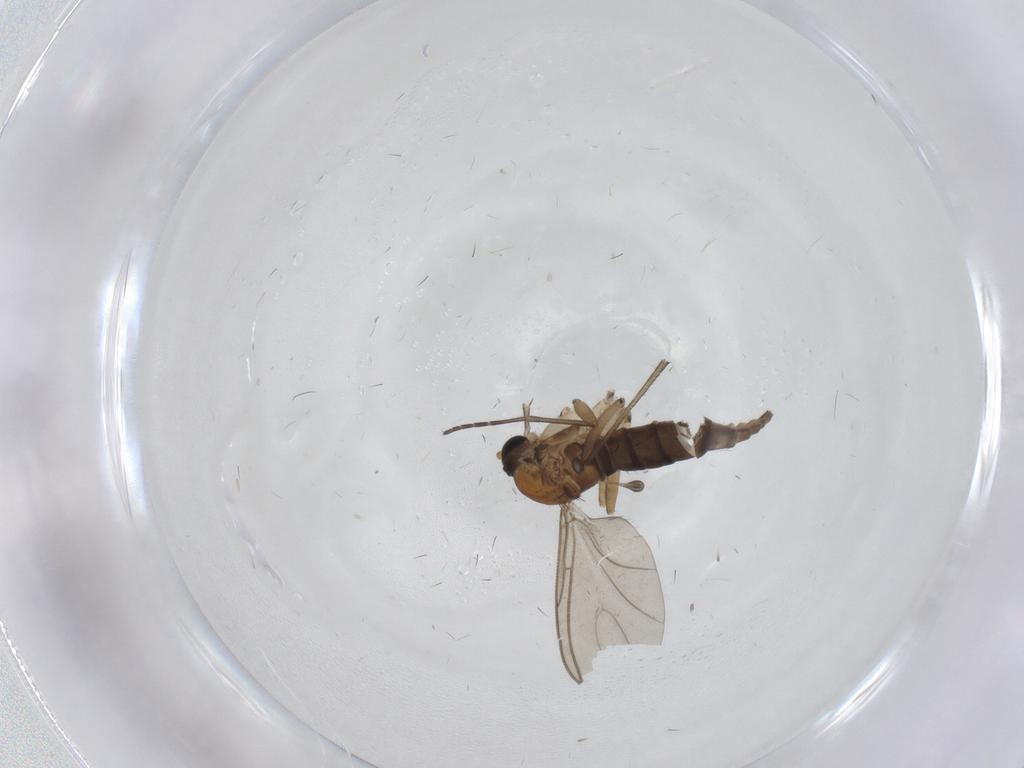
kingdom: Animalia
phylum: Arthropoda
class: Insecta
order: Diptera
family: Sciaridae
